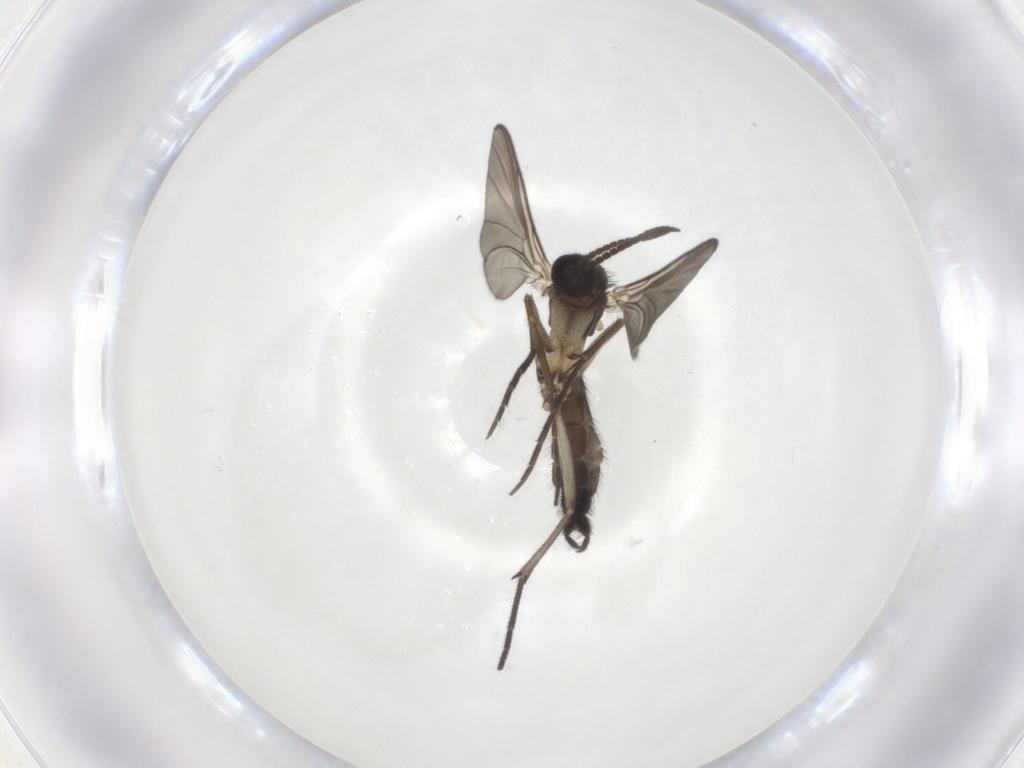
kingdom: Animalia
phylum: Arthropoda
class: Insecta
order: Diptera
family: Keroplatidae
